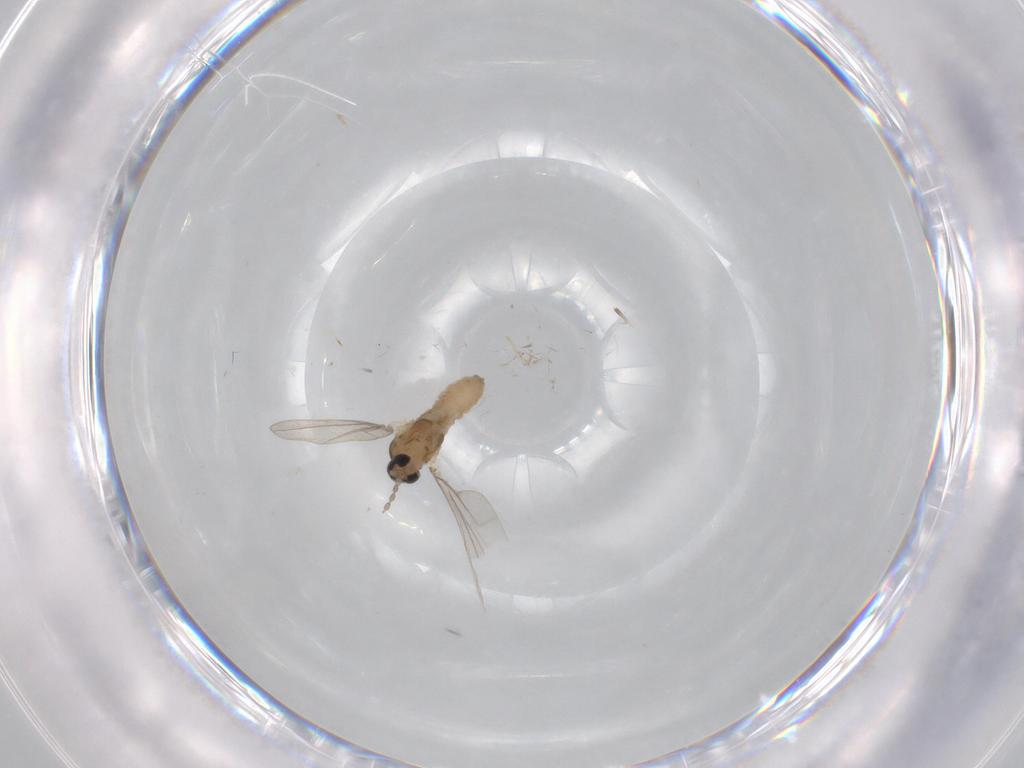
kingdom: Animalia
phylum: Arthropoda
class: Insecta
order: Diptera
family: Cecidomyiidae
